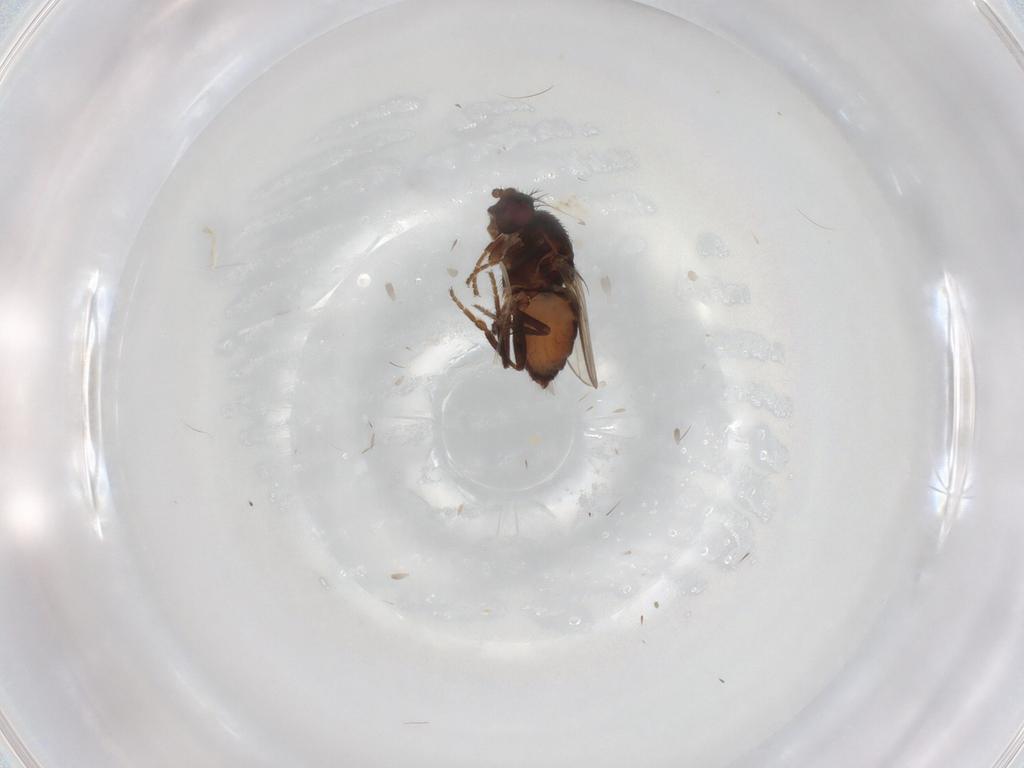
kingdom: Animalia
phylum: Arthropoda
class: Insecta
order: Diptera
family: Sphaeroceridae
